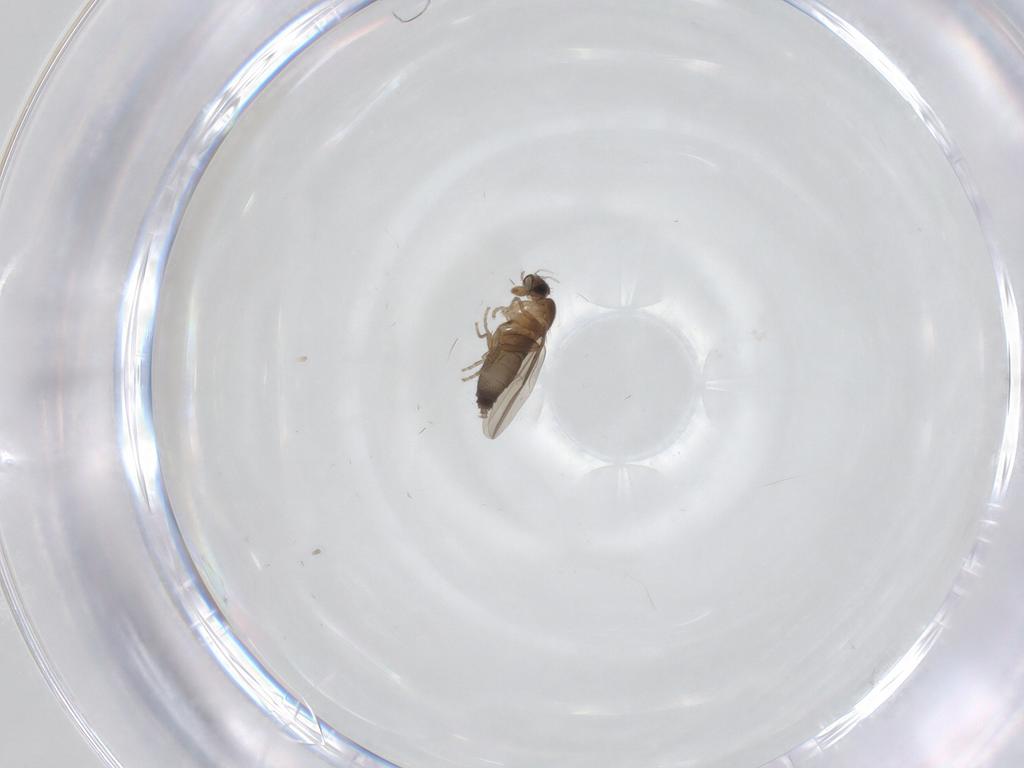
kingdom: Animalia
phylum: Arthropoda
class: Insecta
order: Diptera
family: Phoridae
